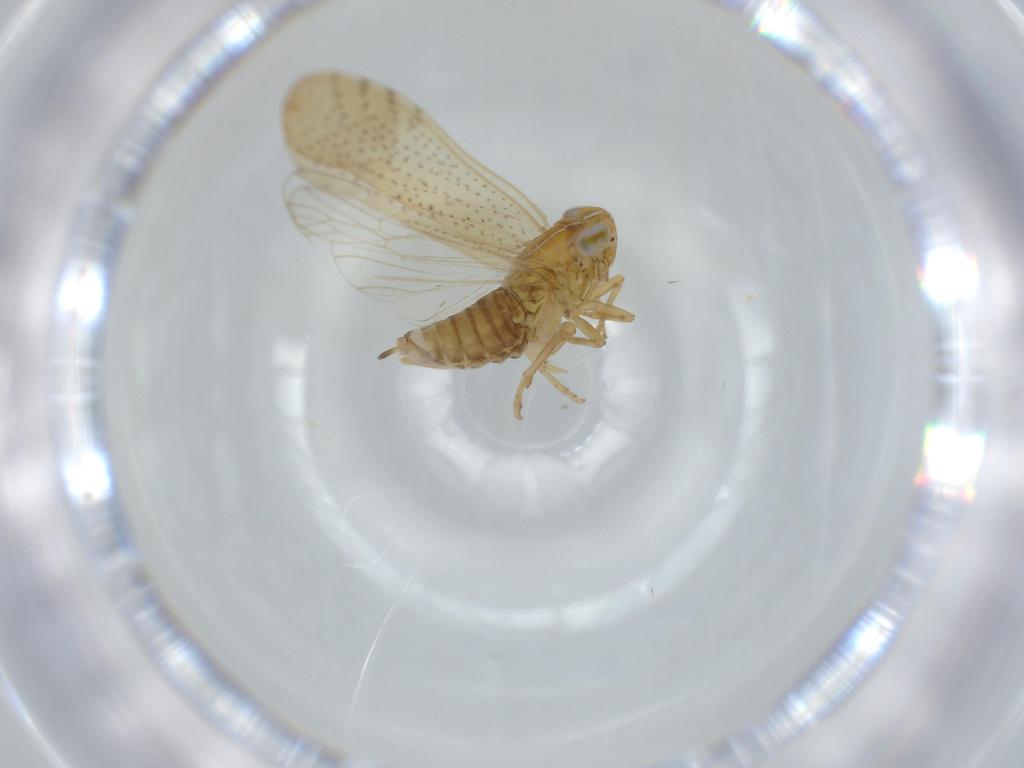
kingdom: Animalia
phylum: Arthropoda
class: Insecta
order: Hemiptera
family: Delphacidae
